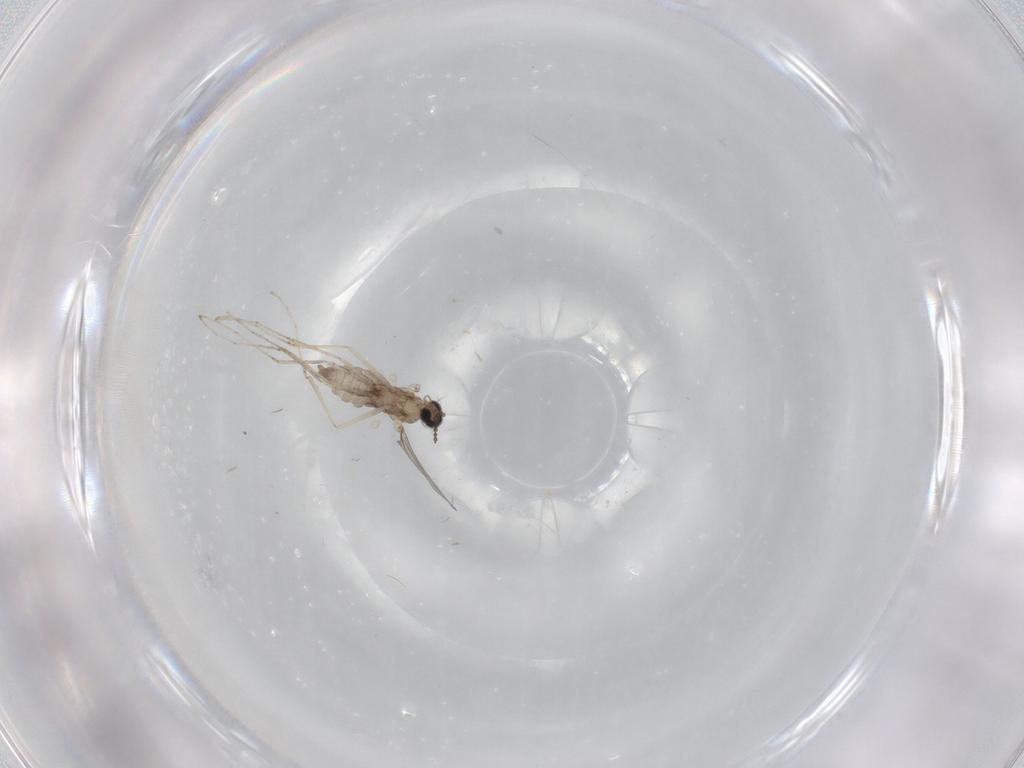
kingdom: Animalia
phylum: Arthropoda
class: Insecta
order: Diptera
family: Cecidomyiidae
